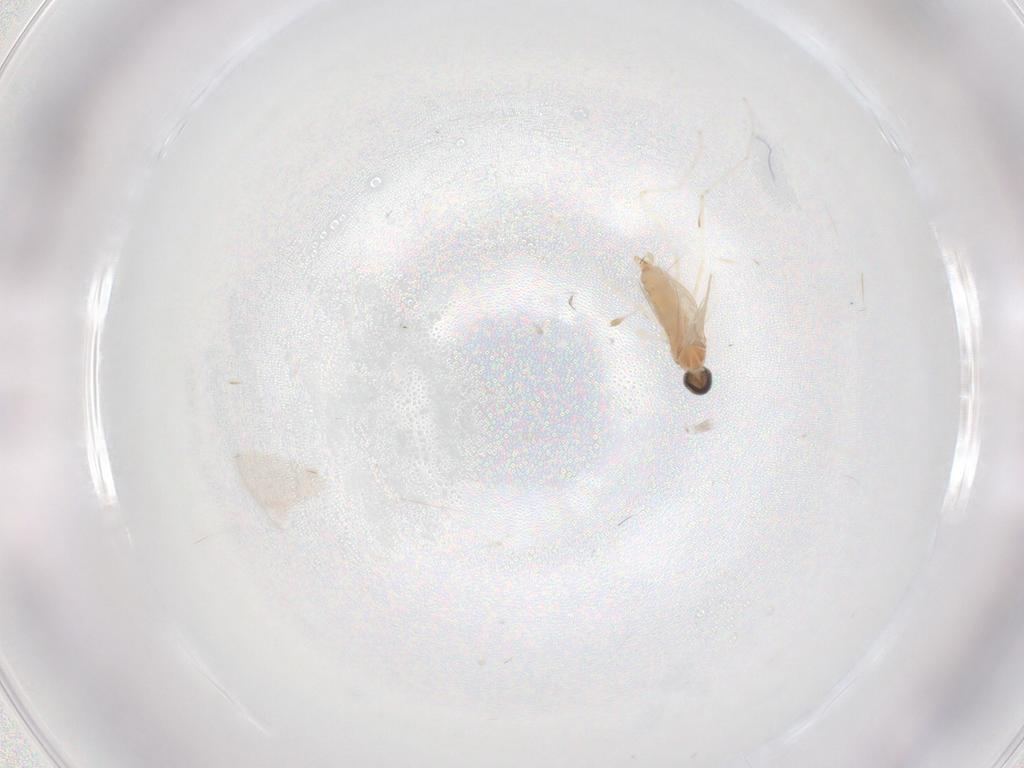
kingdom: Animalia
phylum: Arthropoda
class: Insecta
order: Diptera
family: Cecidomyiidae
